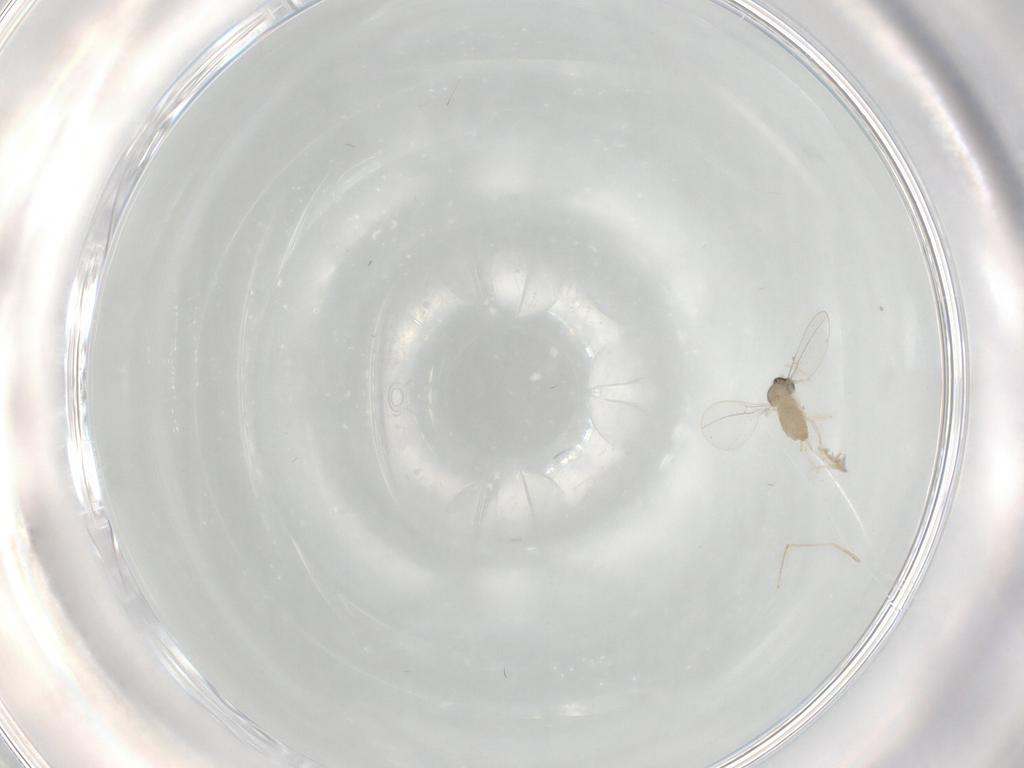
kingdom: Animalia
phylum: Arthropoda
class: Insecta
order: Diptera
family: Cecidomyiidae
